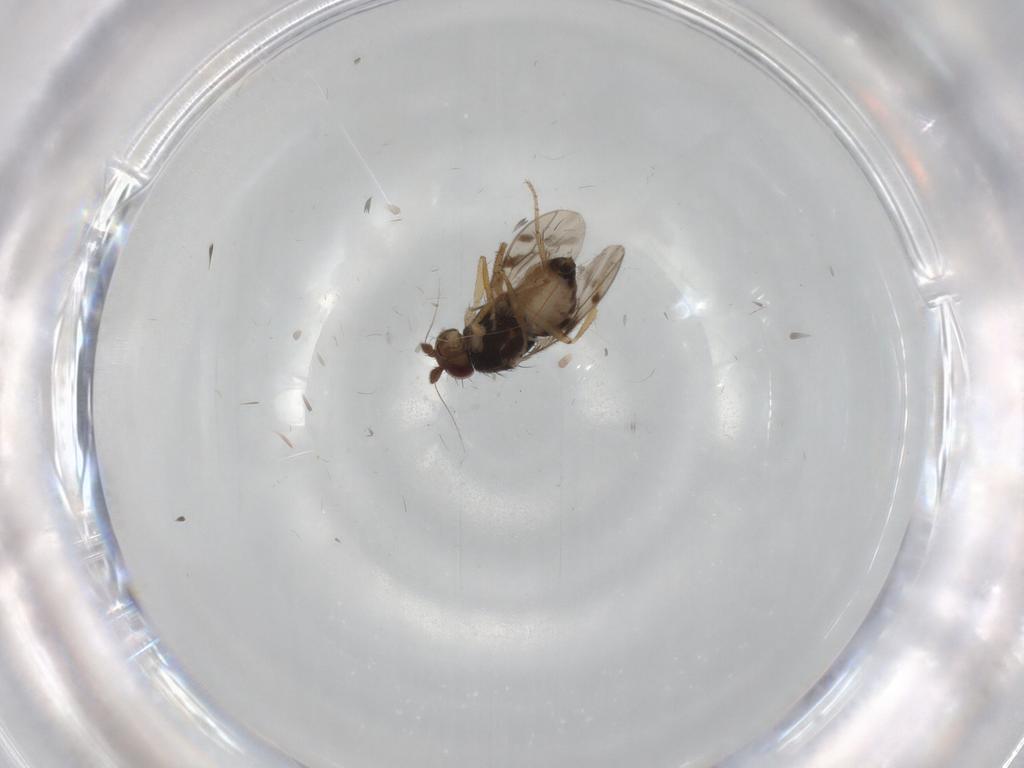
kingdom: Animalia
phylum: Arthropoda
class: Insecta
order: Diptera
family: Sphaeroceridae
